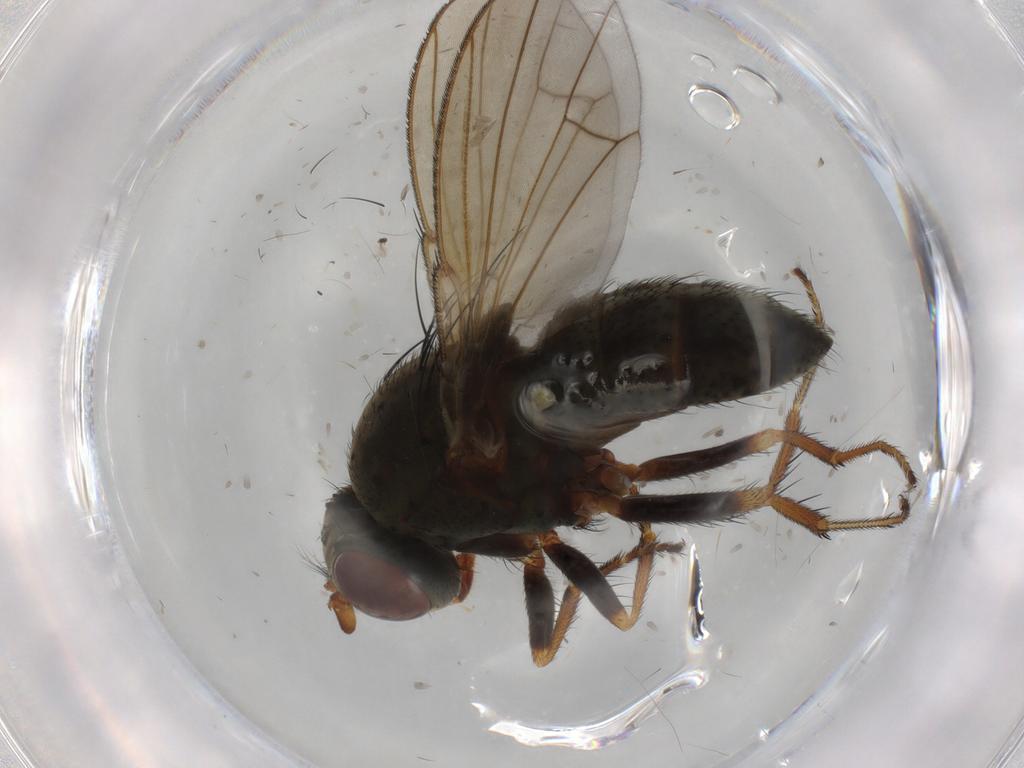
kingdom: Animalia
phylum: Arthropoda
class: Insecta
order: Diptera
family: Ephydridae
